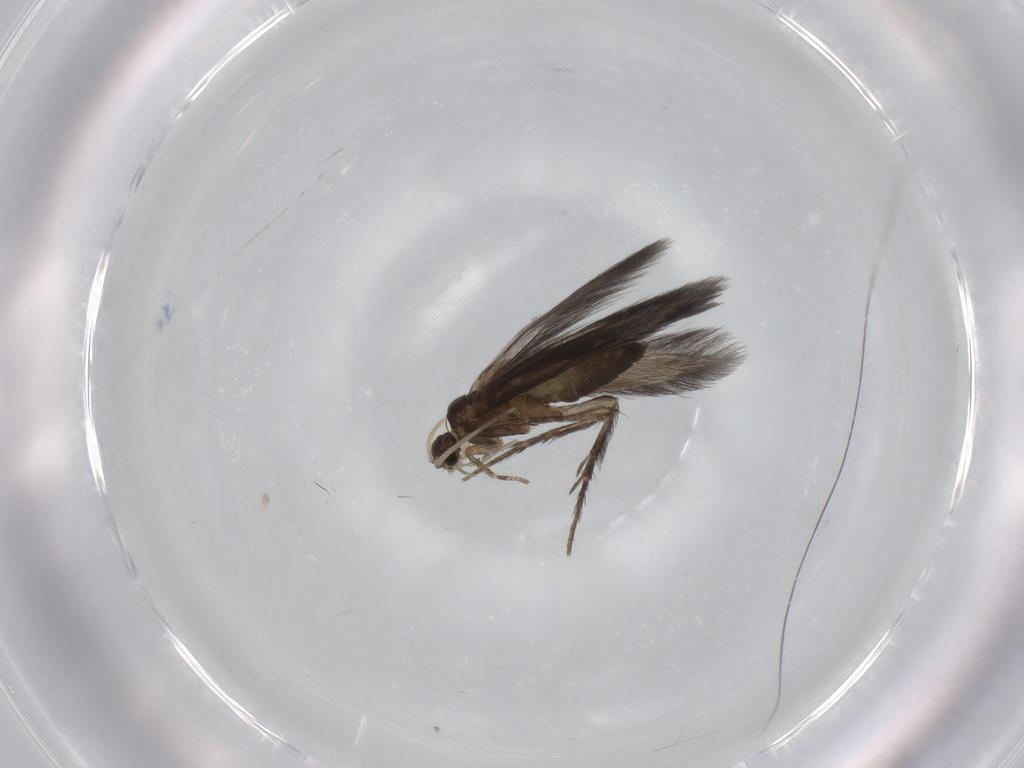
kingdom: Animalia
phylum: Arthropoda
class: Insecta
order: Trichoptera
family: Hydroptilidae
